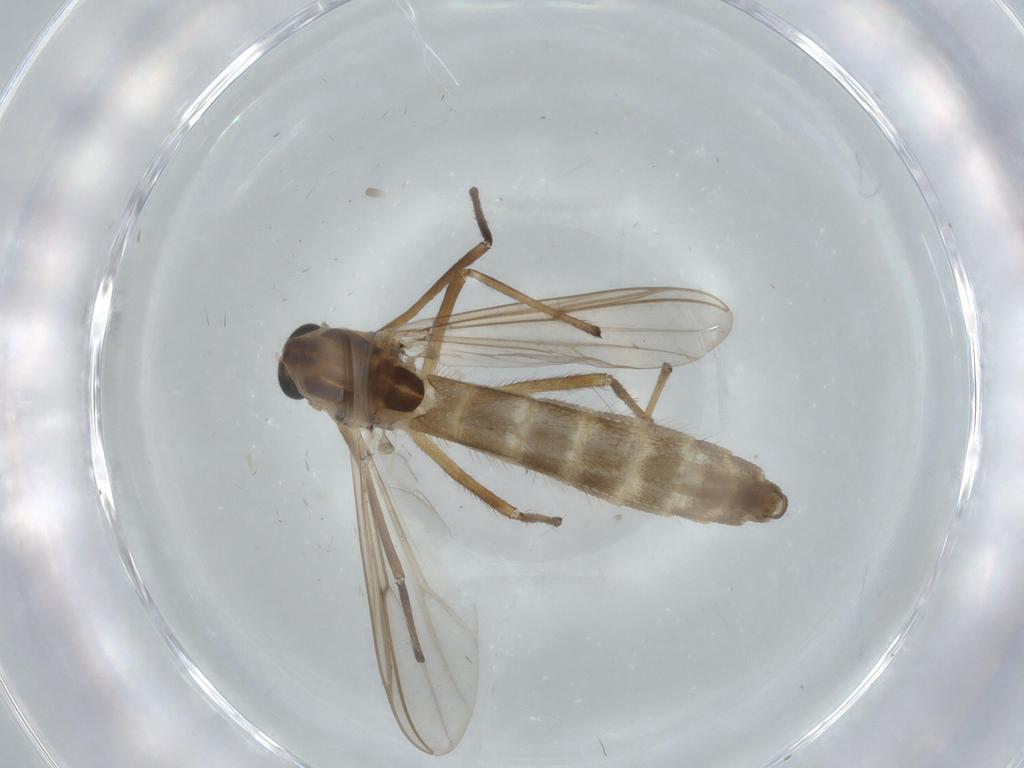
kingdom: Animalia
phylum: Arthropoda
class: Insecta
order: Diptera
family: Chironomidae
